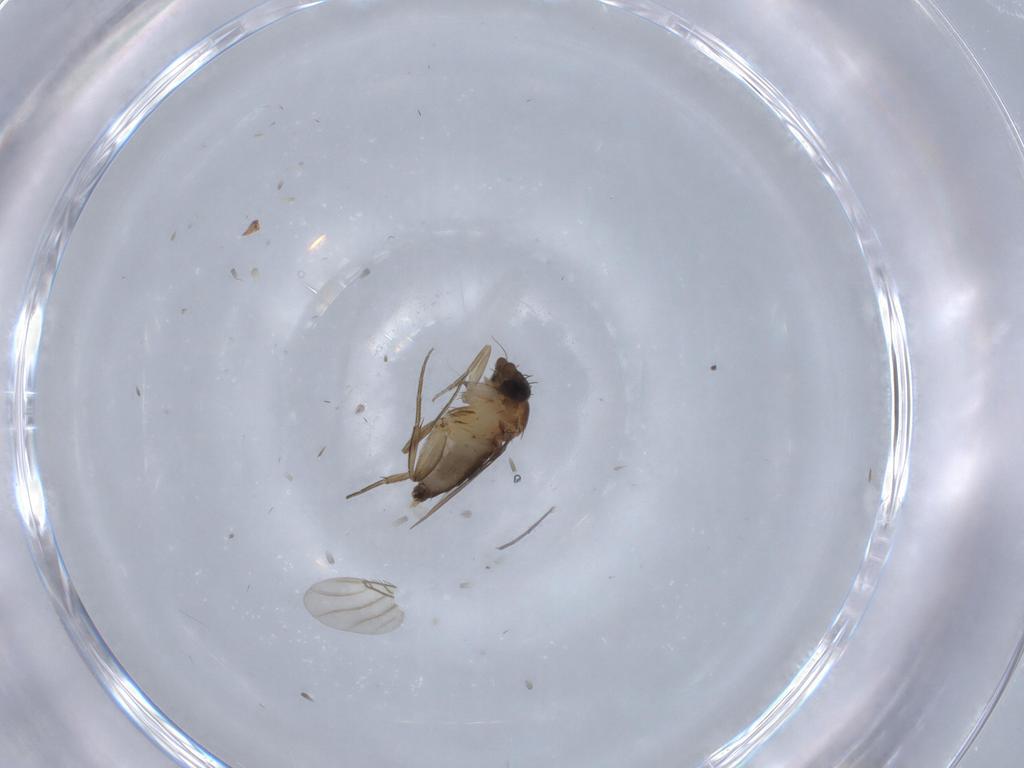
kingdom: Animalia
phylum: Arthropoda
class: Insecta
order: Diptera
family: Phoridae
